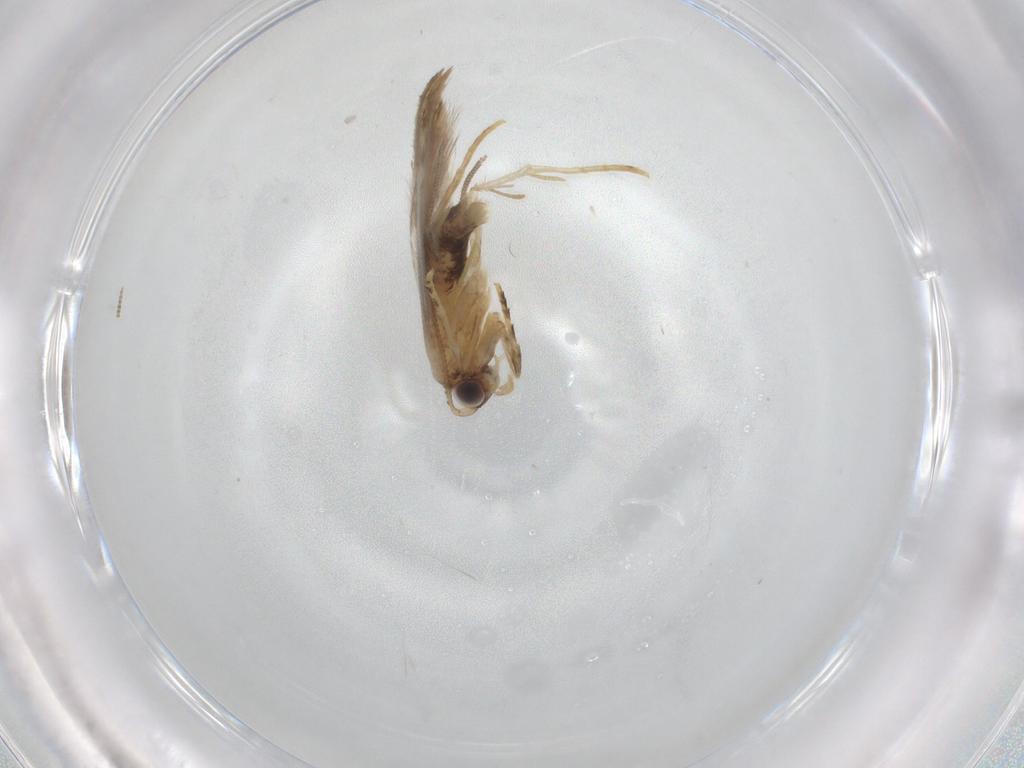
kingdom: Animalia
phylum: Arthropoda
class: Insecta
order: Lepidoptera
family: Tineidae
